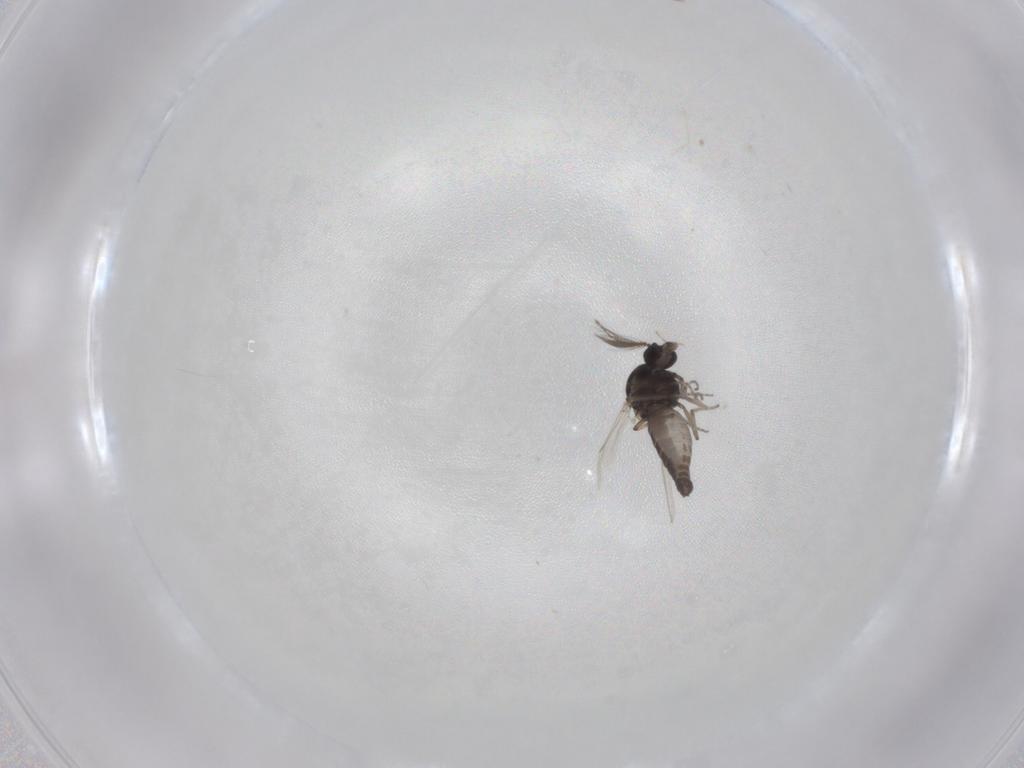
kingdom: Animalia
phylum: Arthropoda
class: Insecta
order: Diptera
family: Ceratopogonidae
